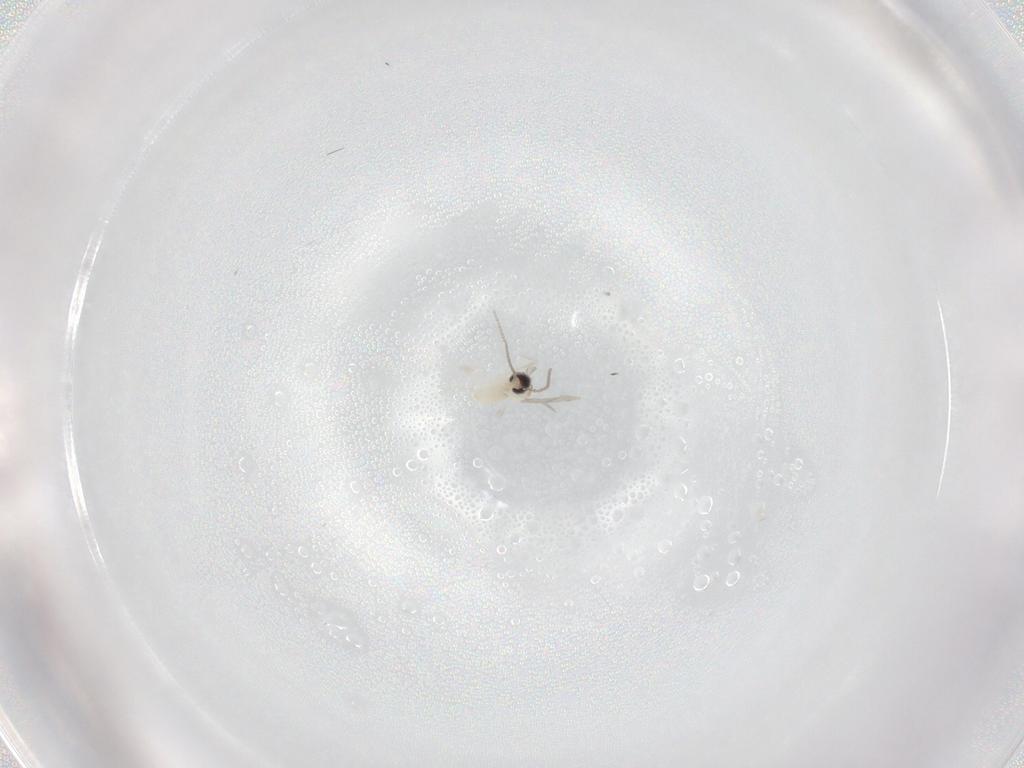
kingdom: Animalia
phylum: Arthropoda
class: Insecta
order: Diptera
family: Cecidomyiidae
